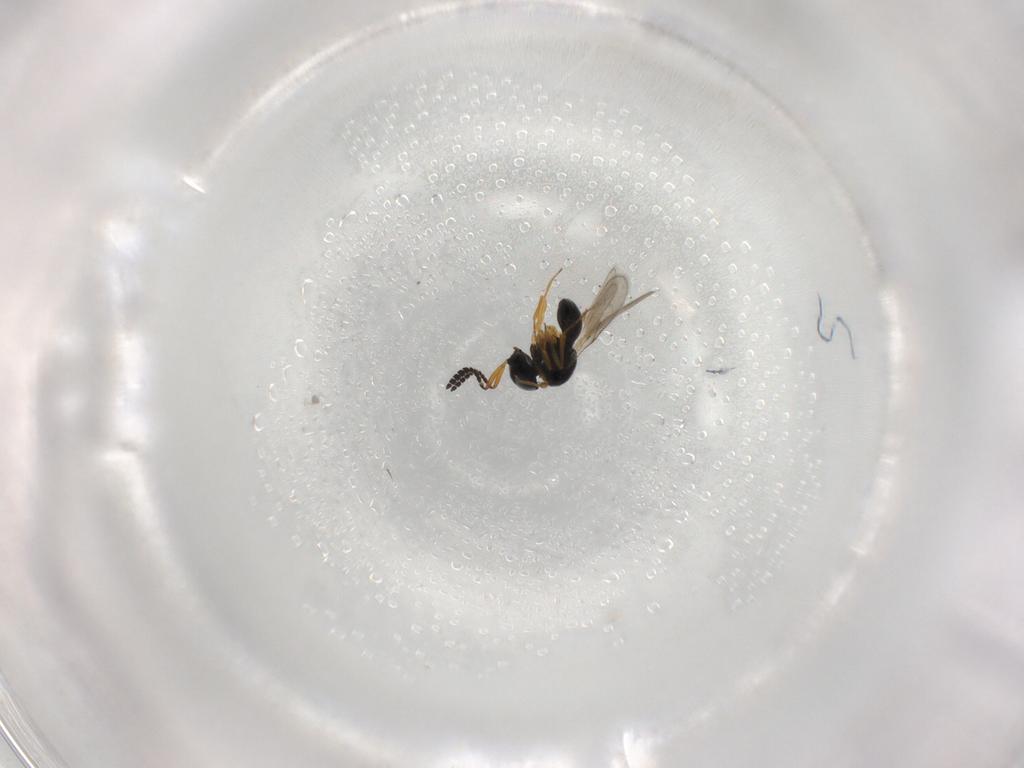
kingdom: Animalia
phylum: Arthropoda
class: Insecta
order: Hymenoptera
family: Scelionidae
